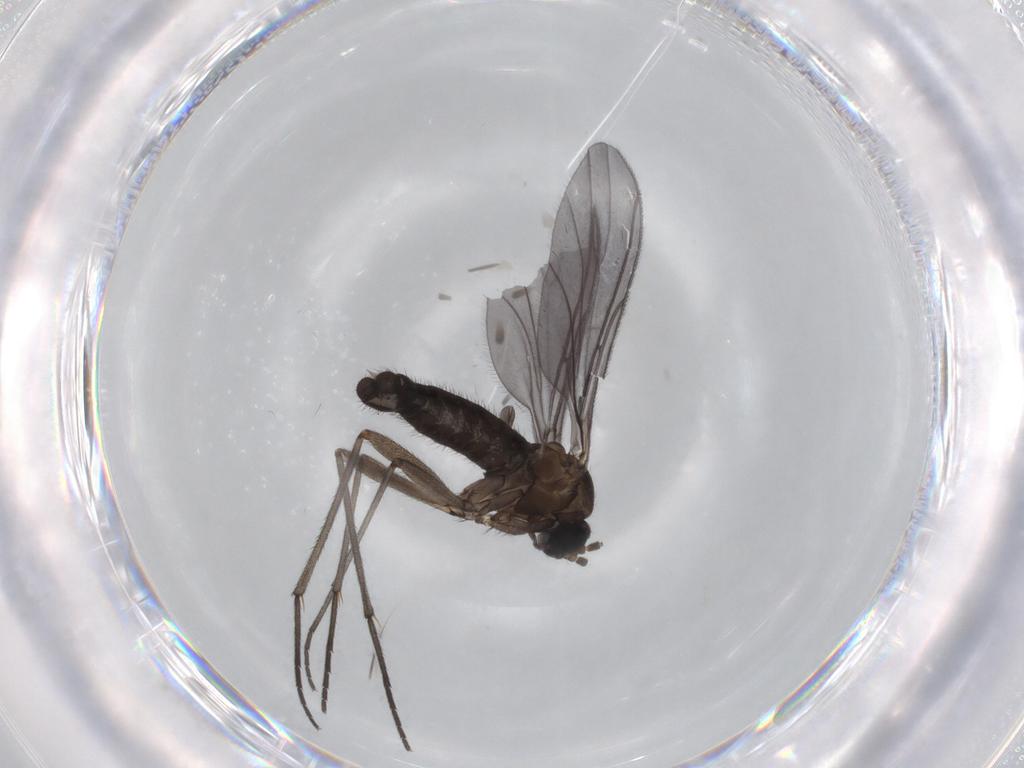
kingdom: Animalia
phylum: Arthropoda
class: Insecta
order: Diptera
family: Sciaridae
